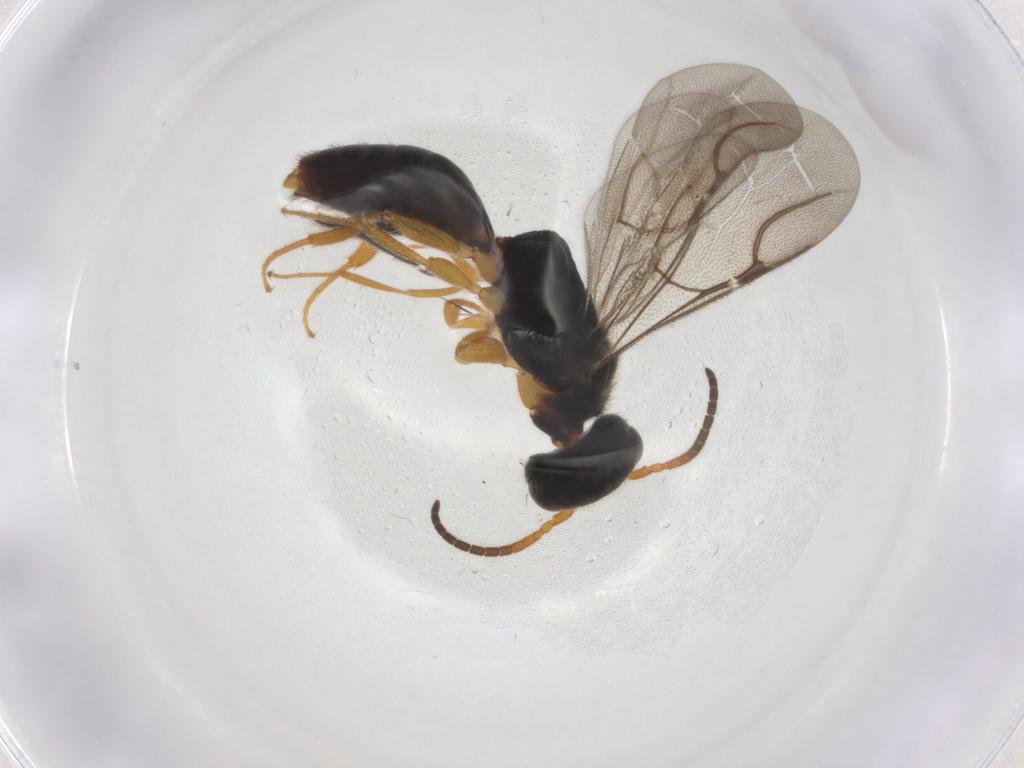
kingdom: Animalia
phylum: Arthropoda
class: Insecta
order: Hymenoptera
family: Bethylidae
